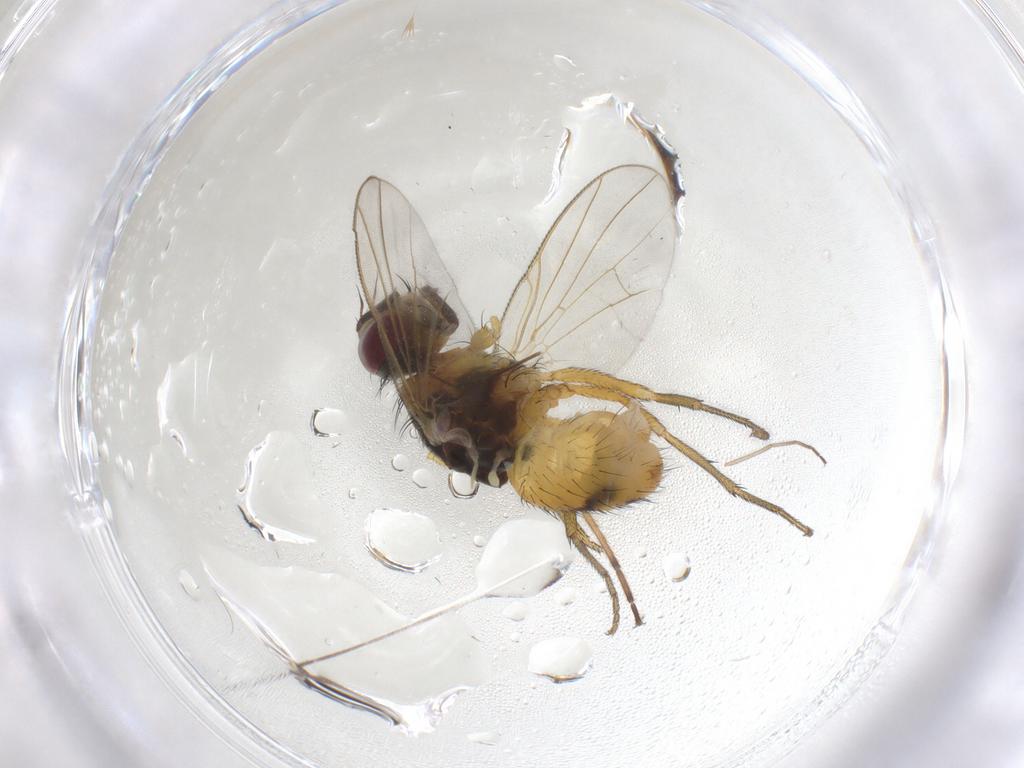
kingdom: Animalia
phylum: Arthropoda
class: Insecta
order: Diptera
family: Muscidae
